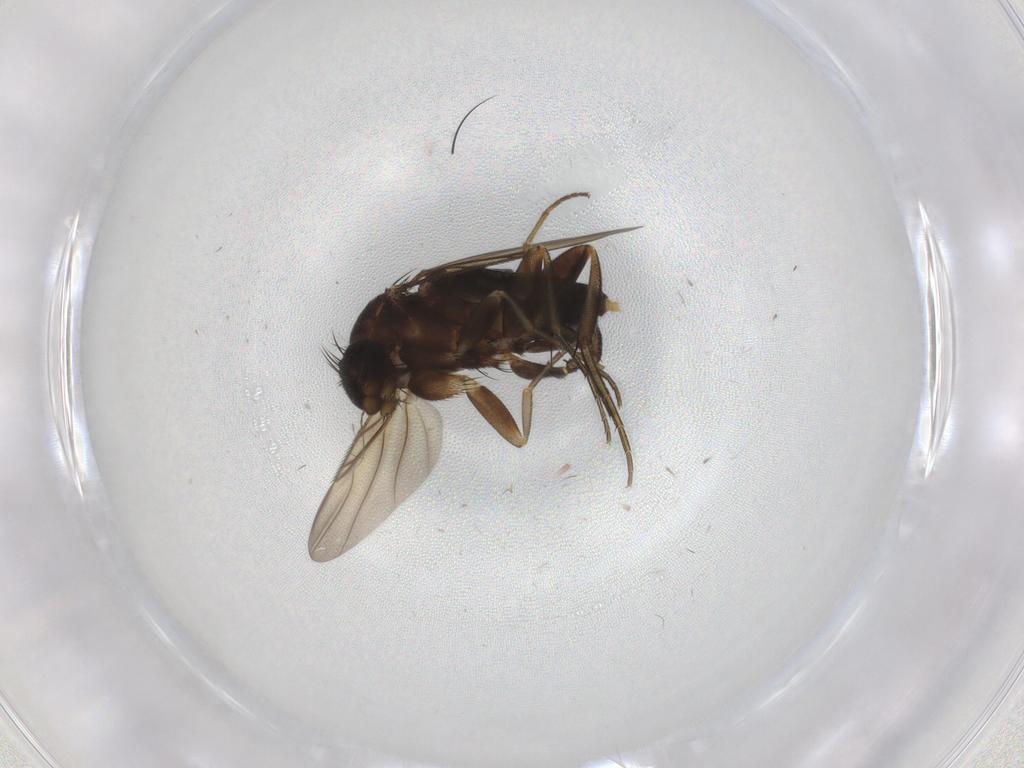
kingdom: Animalia
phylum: Arthropoda
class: Insecta
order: Diptera
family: Phoridae
